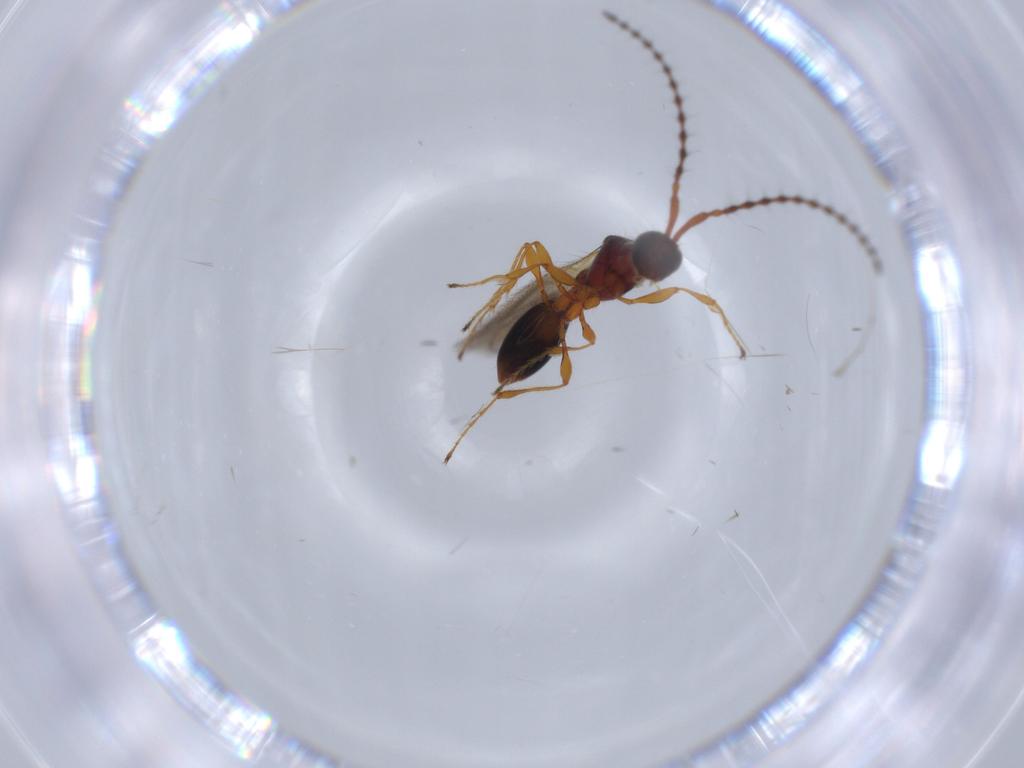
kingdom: Animalia
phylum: Arthropoda
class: Insecta
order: Hymenoptera
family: Diapriidae
